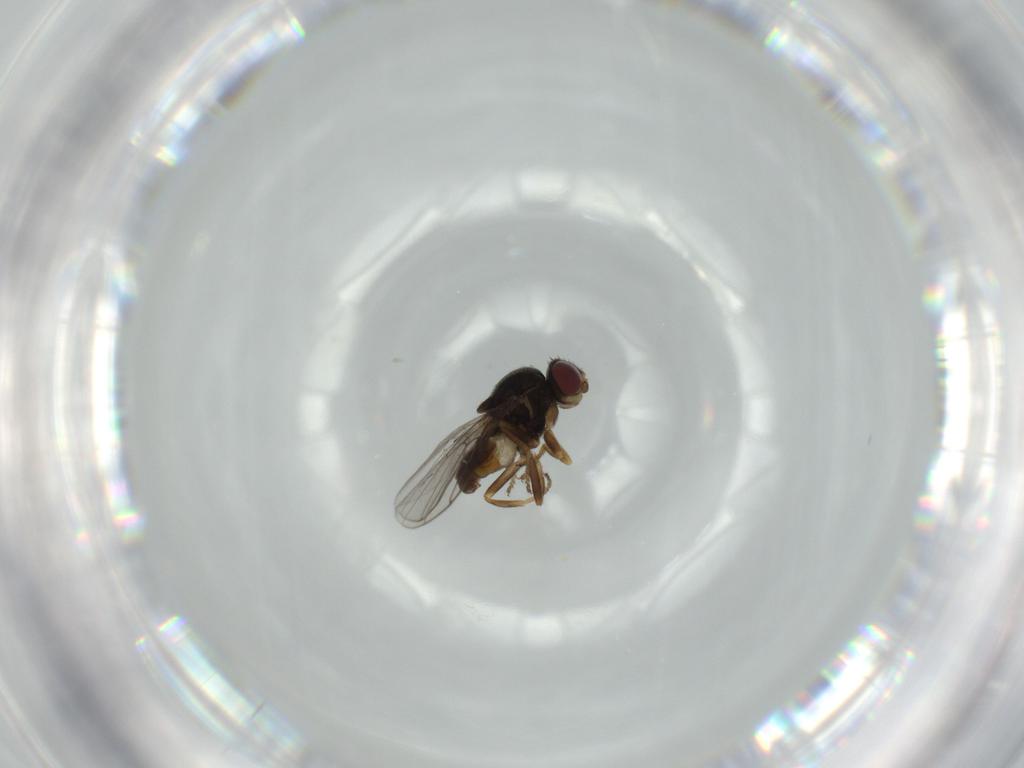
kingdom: Animalia
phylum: Arthropoda
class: Insecta
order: Diptera
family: Chloropidae
